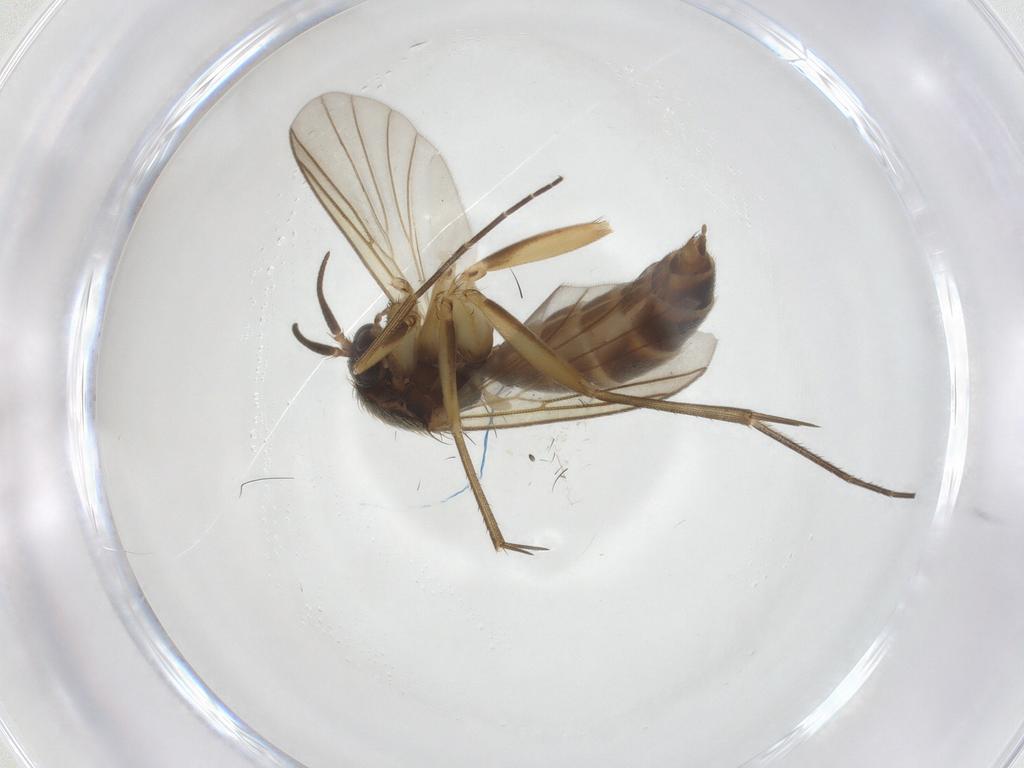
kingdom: Animalia
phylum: Arthropoda
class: Insecta
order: Diptera
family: Cecidomyiidae
